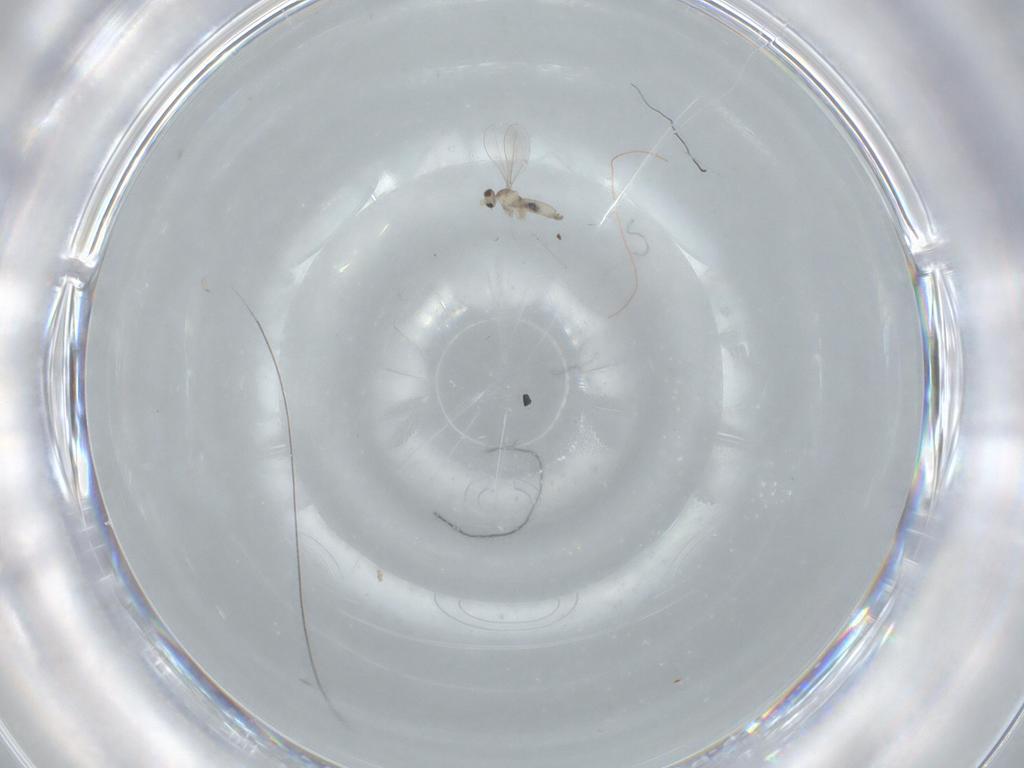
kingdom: Animalia
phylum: Arthropoda
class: Insecta
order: Diptera
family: Cecidomyiidae
